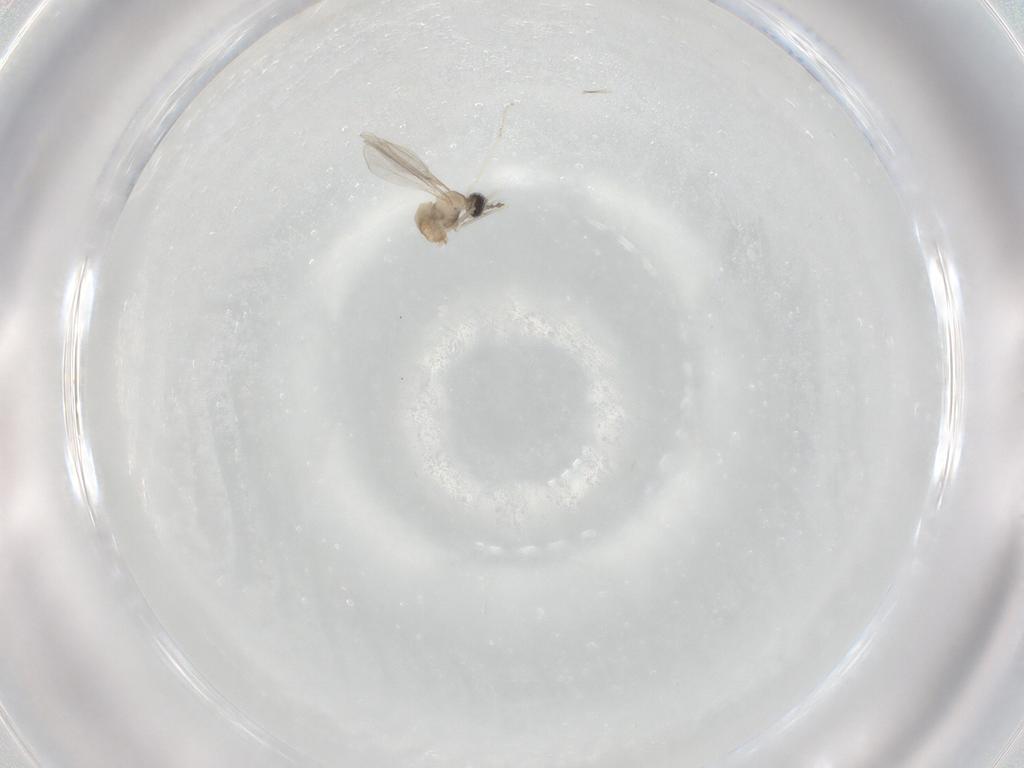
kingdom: Animalia
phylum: Arthropoda
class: Insecta
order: Diptera
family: Cecidomyiidae
